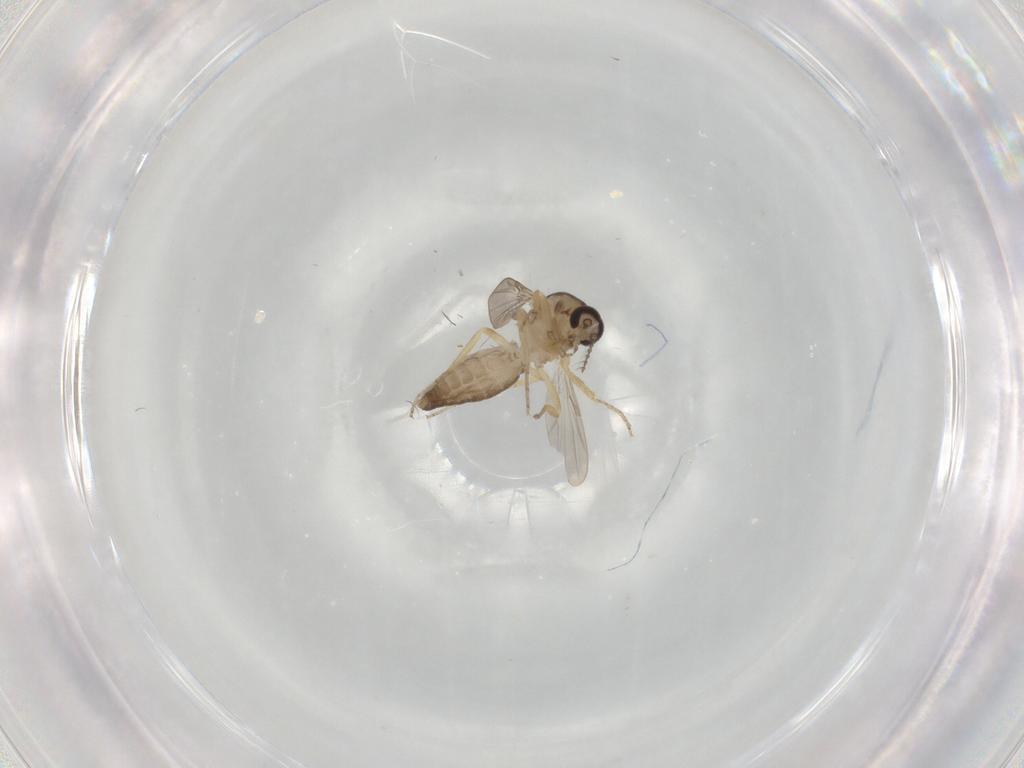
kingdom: Animalia
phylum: Arthropoda
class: Insecta
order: Diptera
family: Ceratopogonidae
